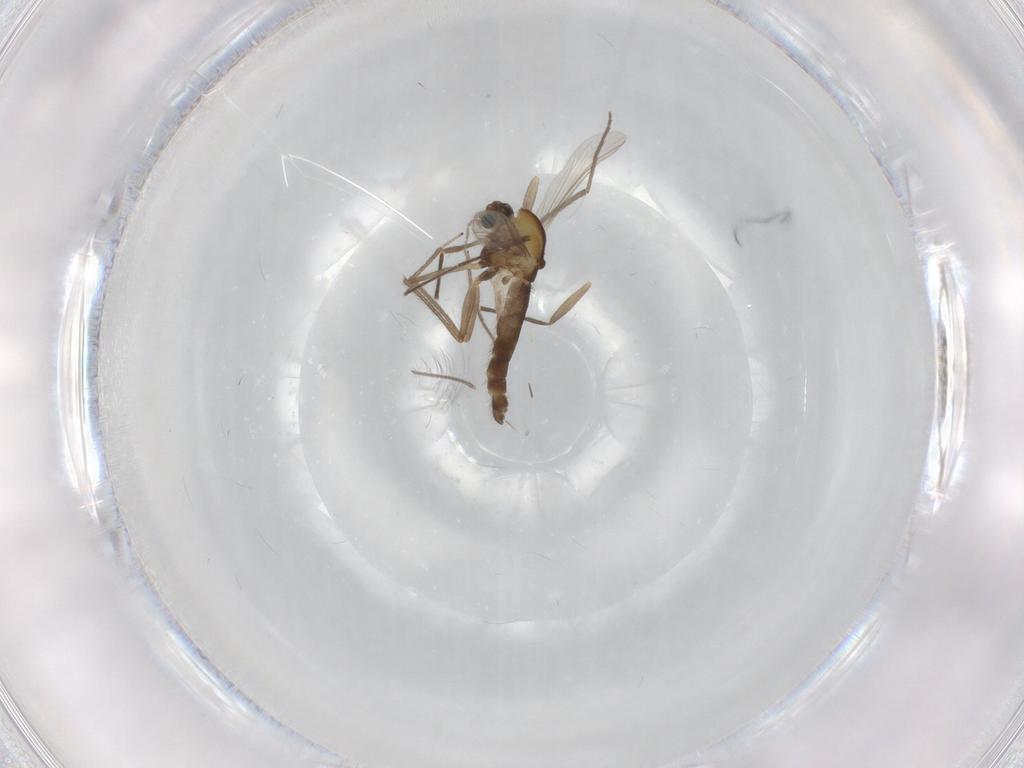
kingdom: Animalia
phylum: Arthropoda
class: Insecta
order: Diptera
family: Chironomidae
